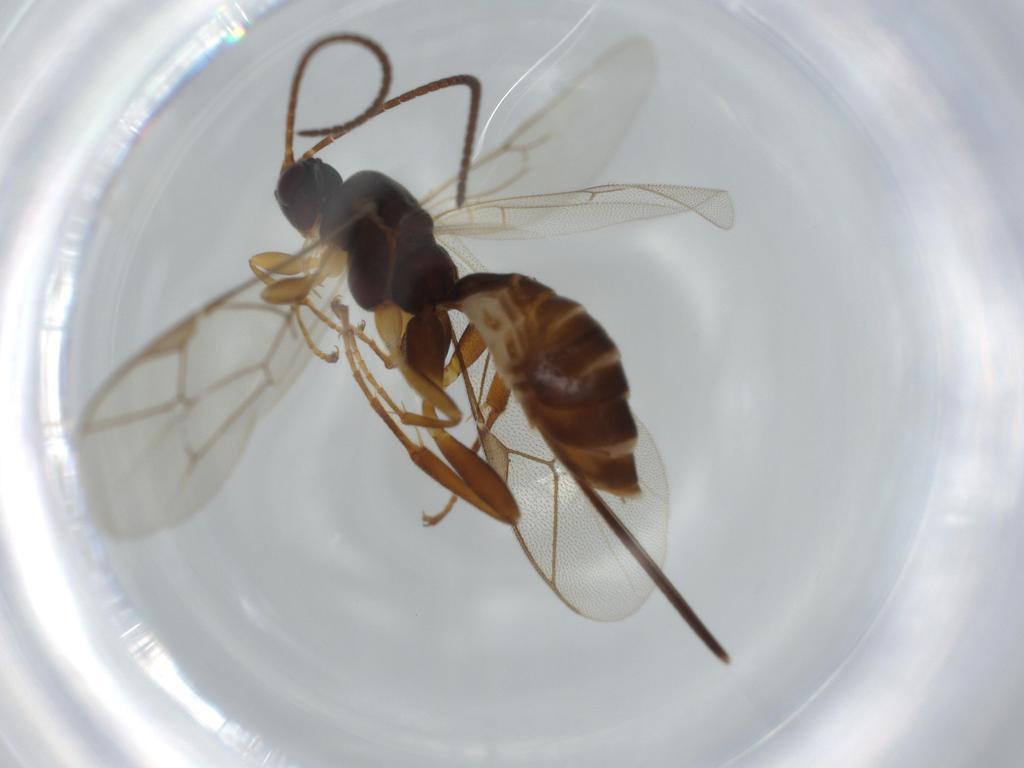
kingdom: Animalia
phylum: Arthropoda
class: Insecta
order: Hymenoptera
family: Ichneumonidae
